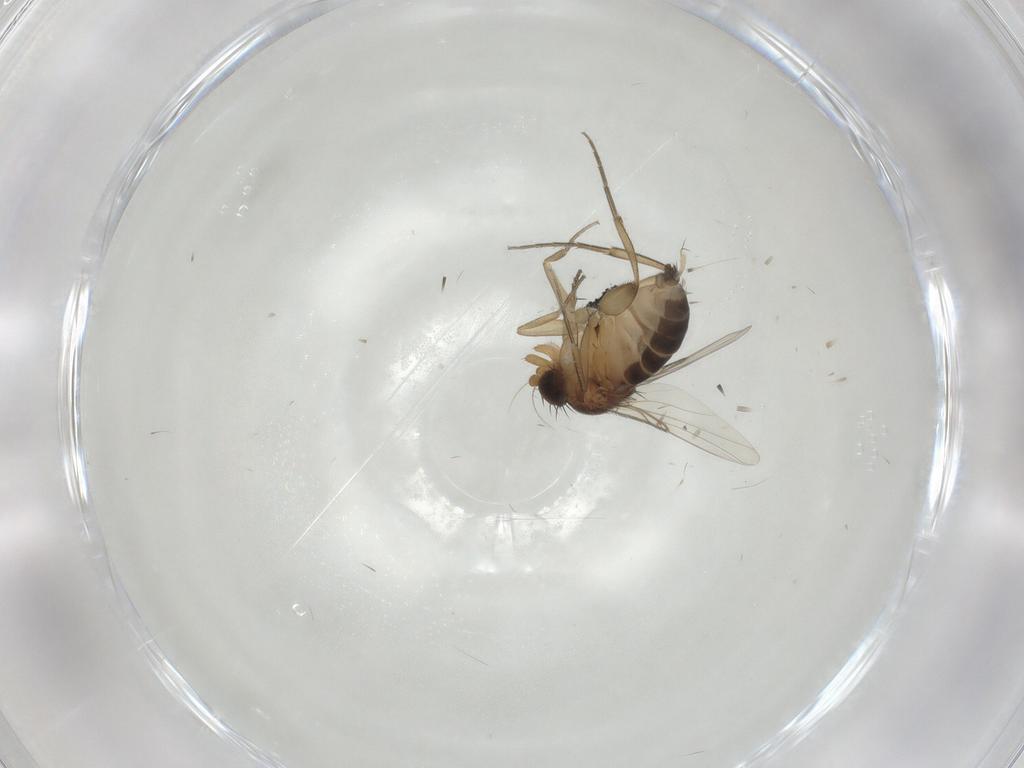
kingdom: Animalia
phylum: Arthropoda
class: Insecta
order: Diptera
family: Phoridae
